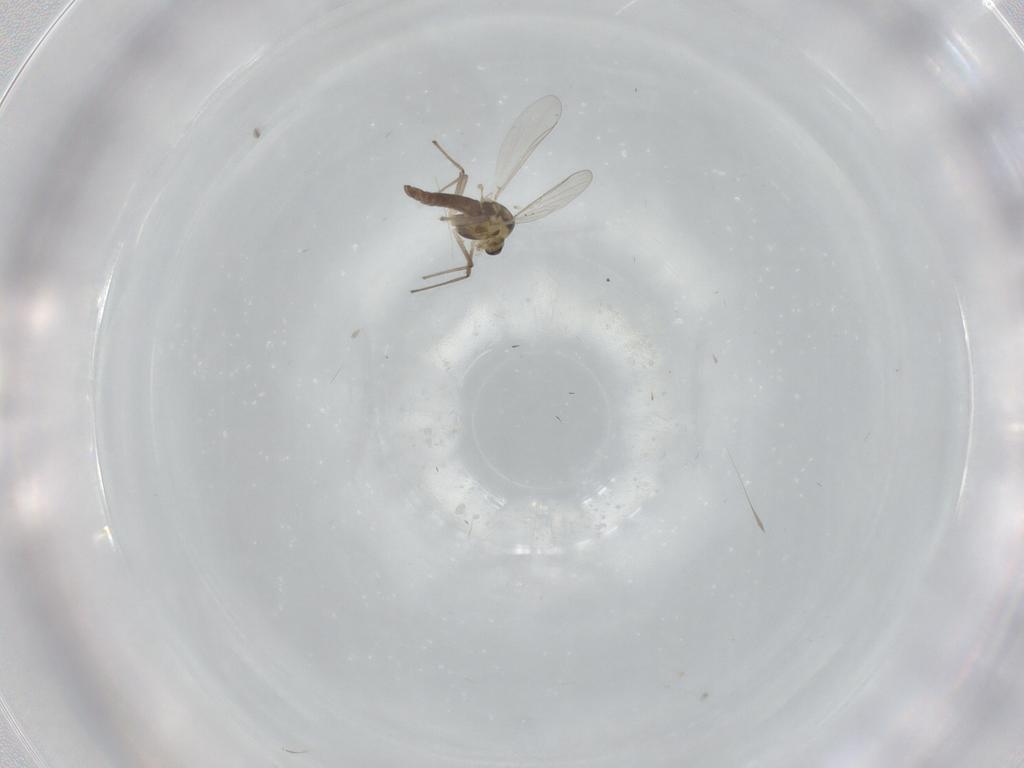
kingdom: Animalia
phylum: Arthropoda
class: Insecta
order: Diptera
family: Chironomidae
